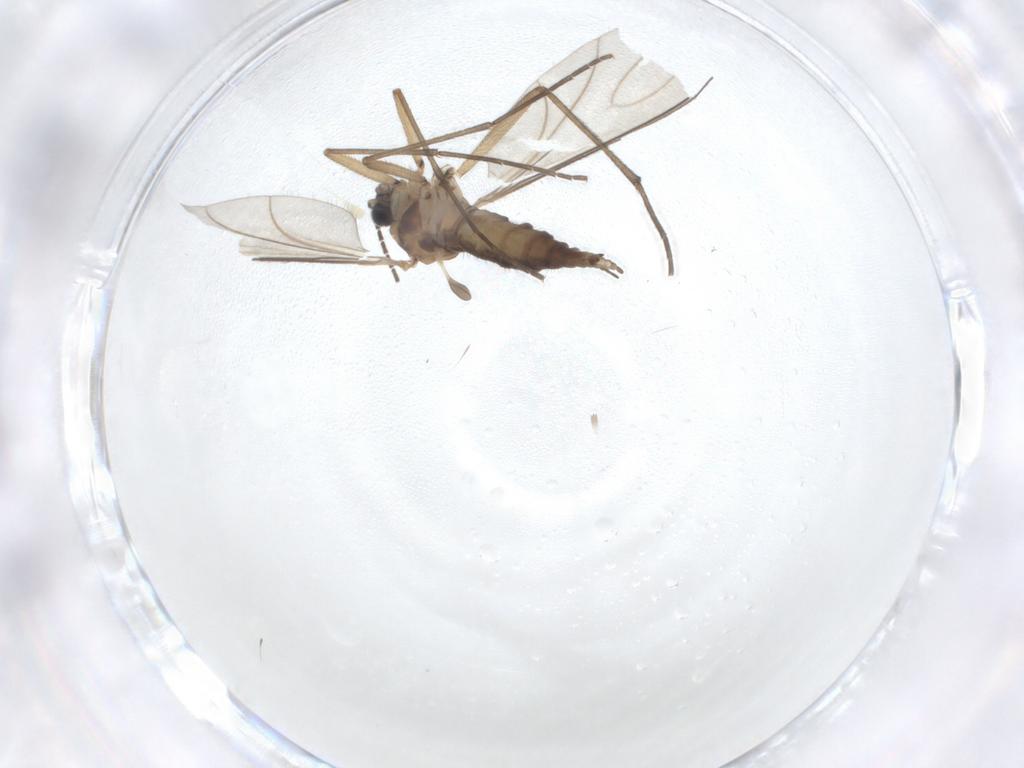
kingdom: Animalia
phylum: Arthropoda
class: Insecta
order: Diptera
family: Sciaridae
